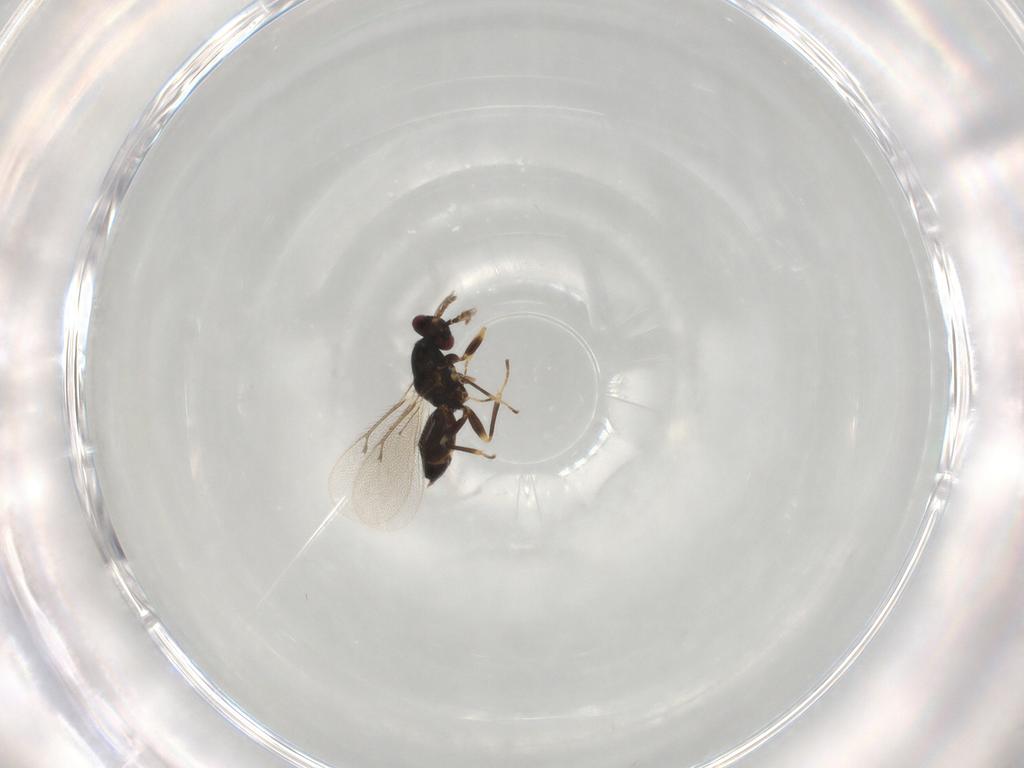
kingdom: Animalia
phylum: Arthropoda
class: Insecta
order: Hymenoptera
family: Eulophidae
